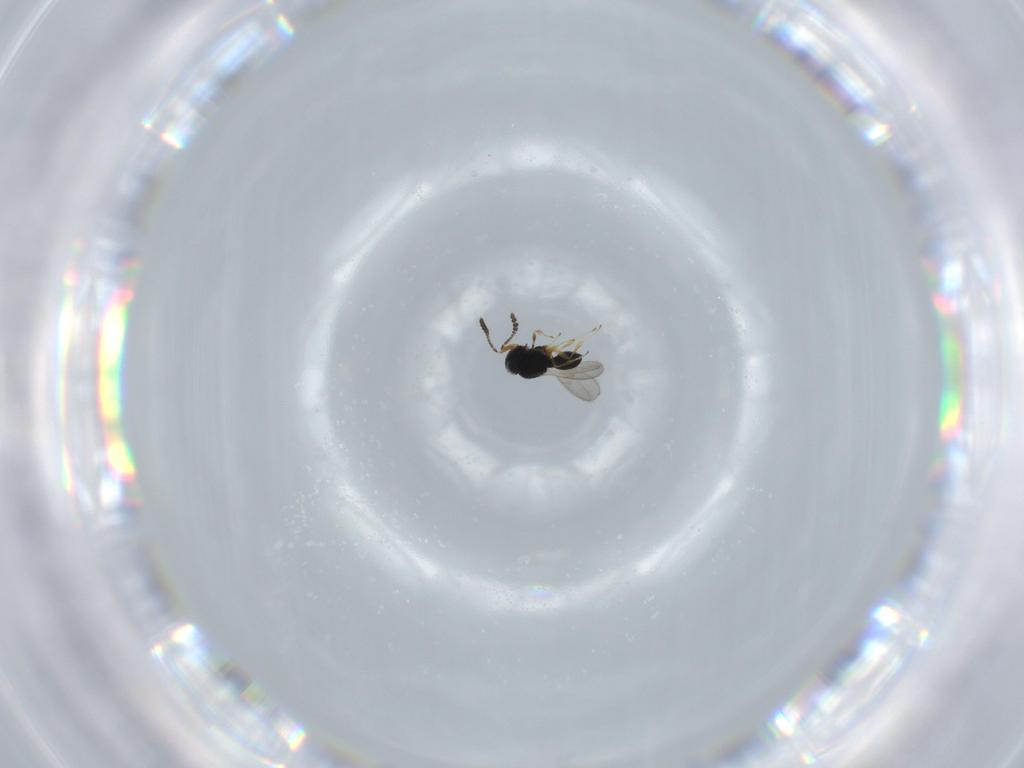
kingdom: Animalia
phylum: Arthropoda
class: Insecta
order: Hymenoptera
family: Scelionidae
